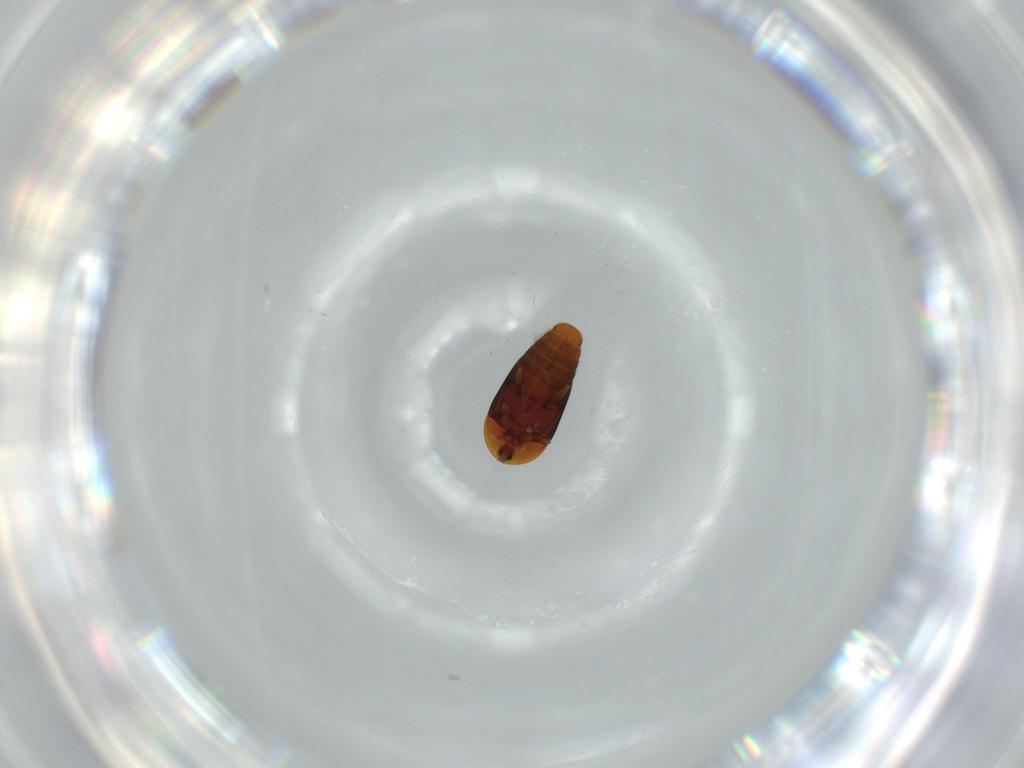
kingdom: Animalia
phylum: Arthropoda
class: Insecta
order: Coleoptera
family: Corylophidae
